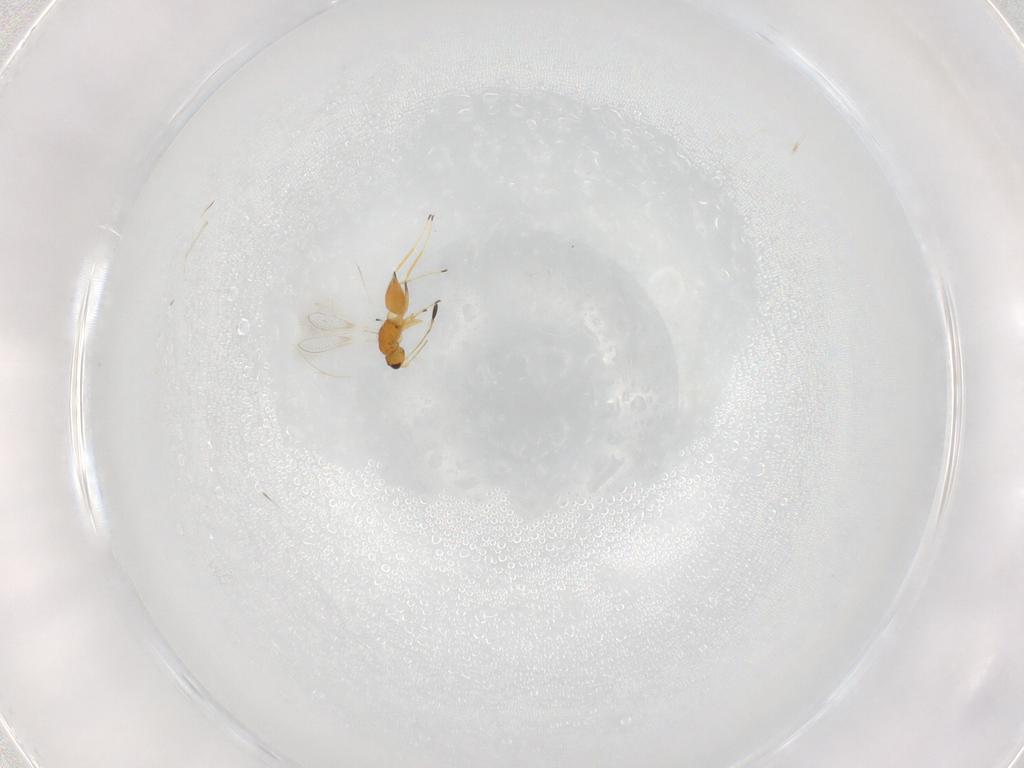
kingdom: Animalia
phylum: Arthropoda
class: Insecta
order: Hymenoptera
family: Mymaridae
